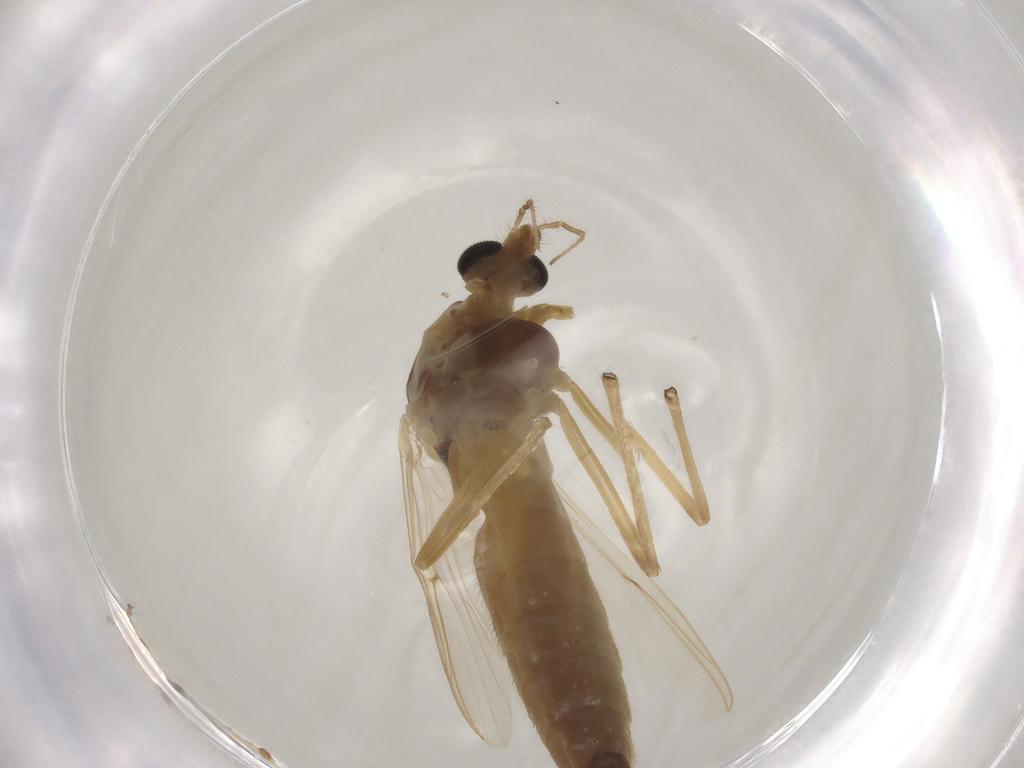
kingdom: Animalia
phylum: Arthropoda
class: Insecta
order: Diptera
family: Chironomidae
